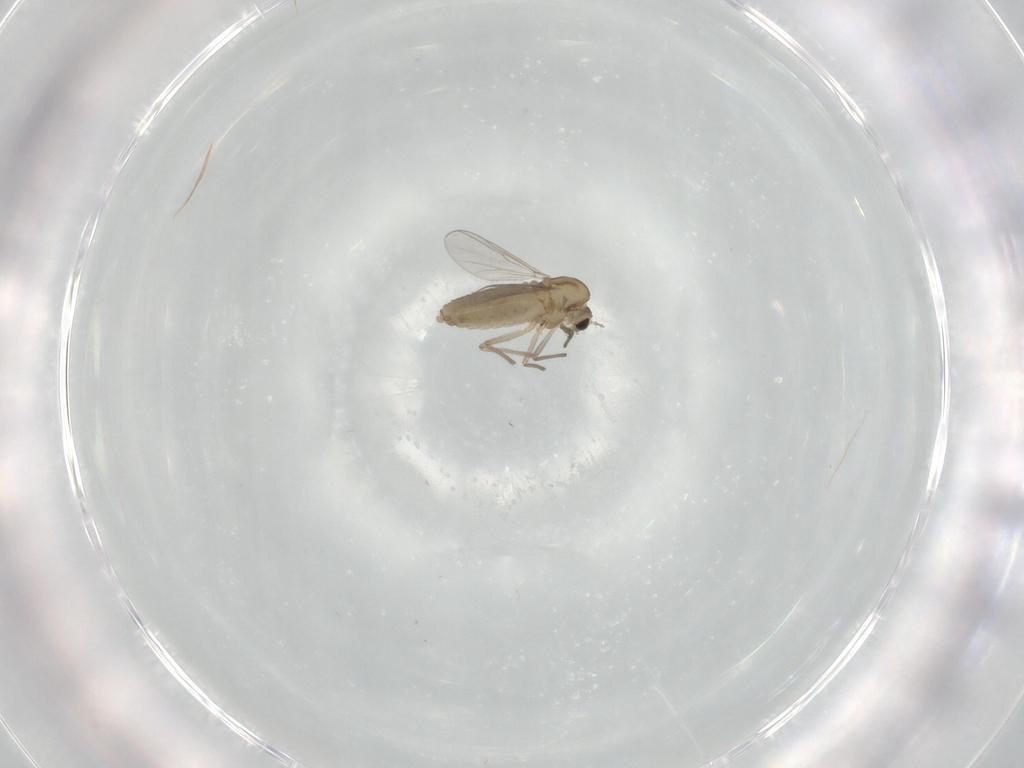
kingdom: Animalia
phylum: Arthropoda
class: Insecta
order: Diptera
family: Chironomidae
